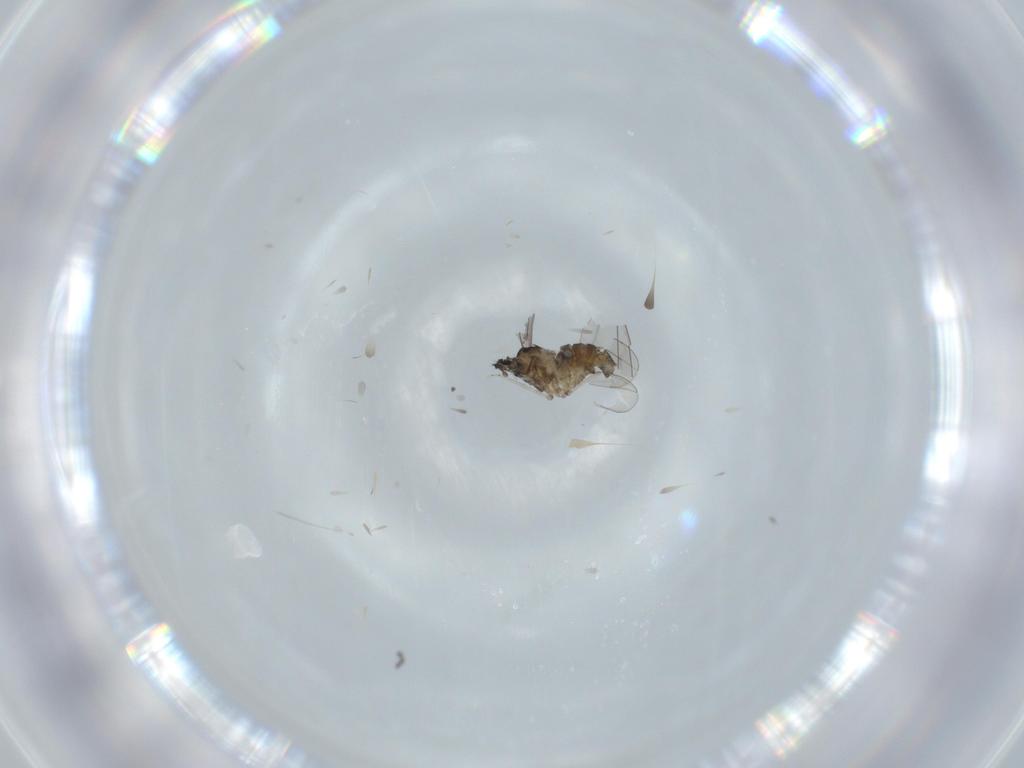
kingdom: Animalia
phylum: Arthropoda
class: Insecta
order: Diptera
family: Cecidomyiidae
